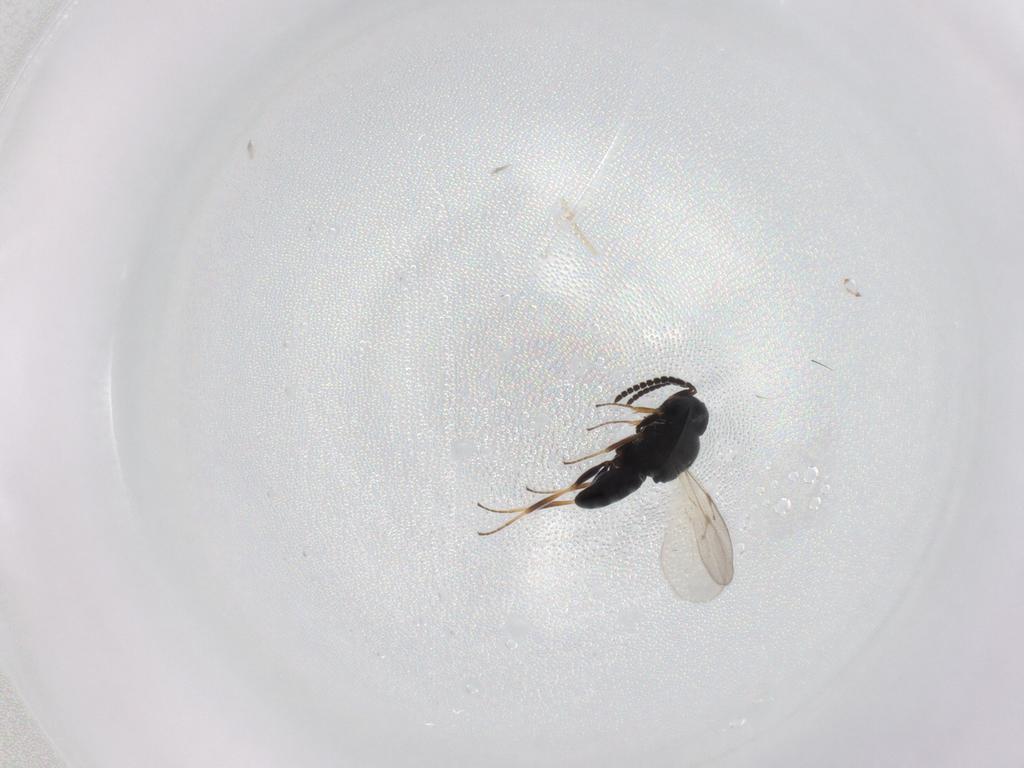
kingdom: Animalia
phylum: Arthropoda
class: Insecta
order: Hymenoptera
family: Scelionidae
